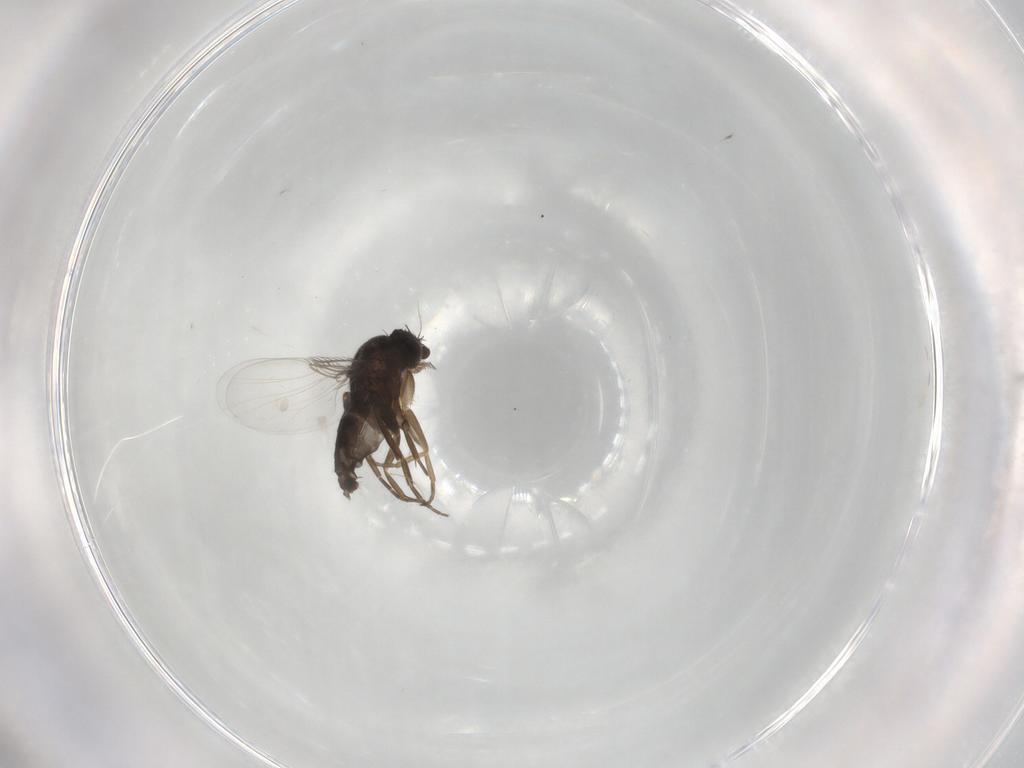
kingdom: Animalia
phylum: Arthropoda
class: Insecta
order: Diptera
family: Phoridae
